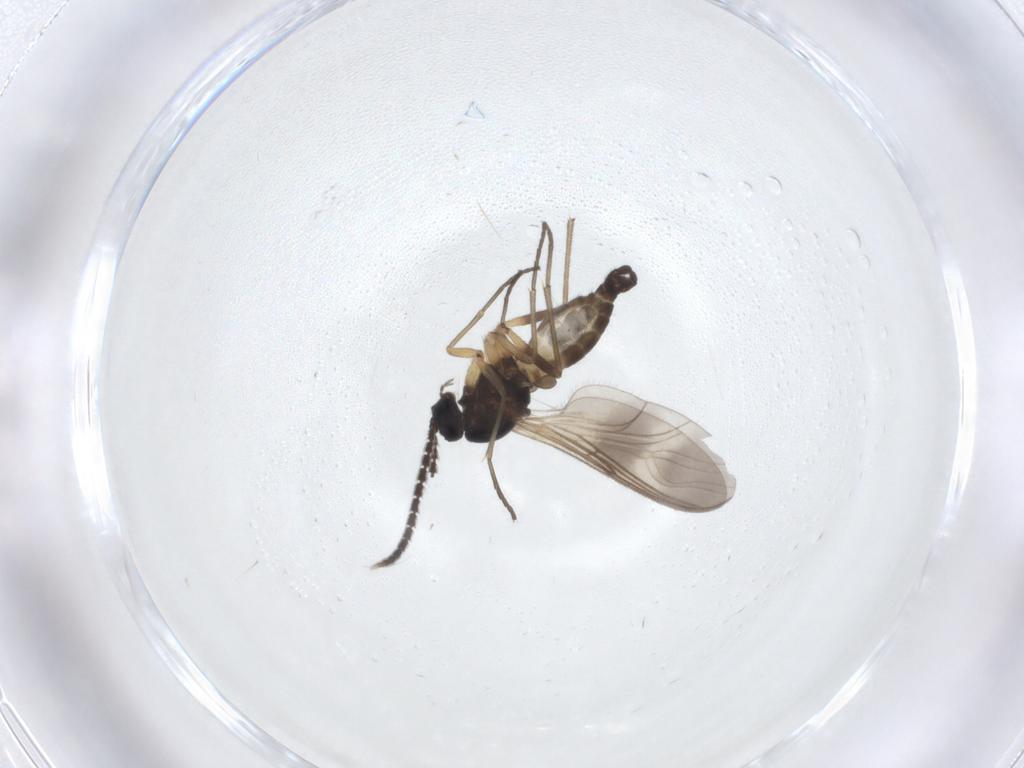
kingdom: Animalia
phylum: Arthropoda
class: Insecta
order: Diptera
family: Sciaridae
